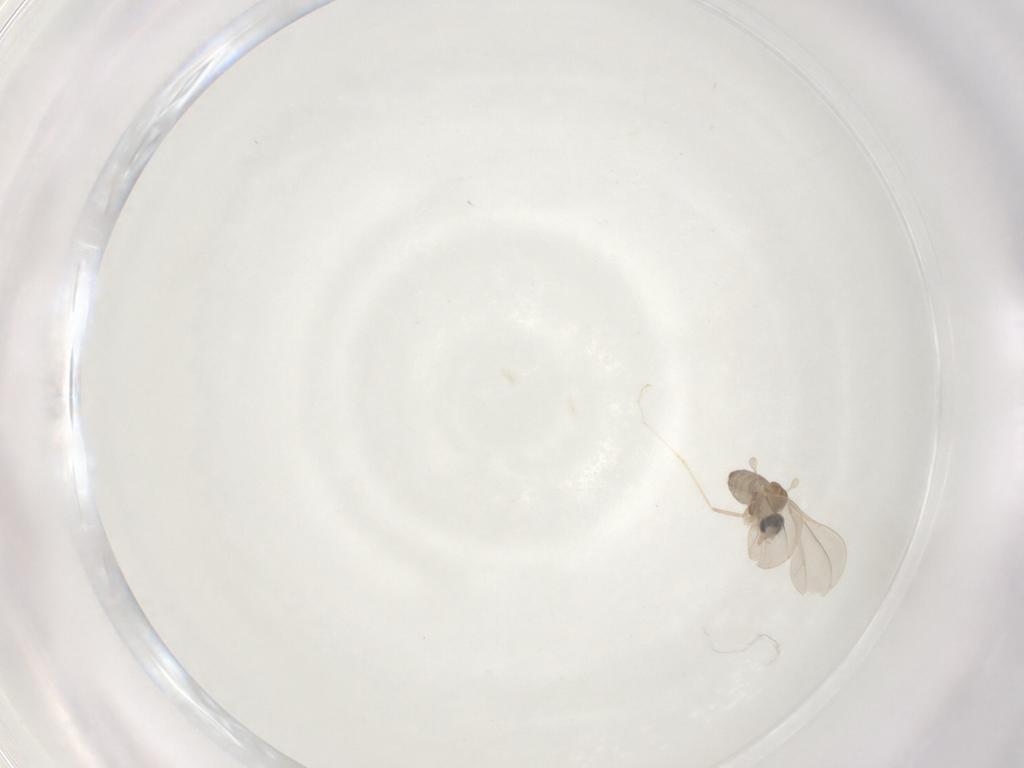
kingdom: Animalia
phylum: Arthropoda
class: Insecta
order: Diptera
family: Cecidomyiidae
